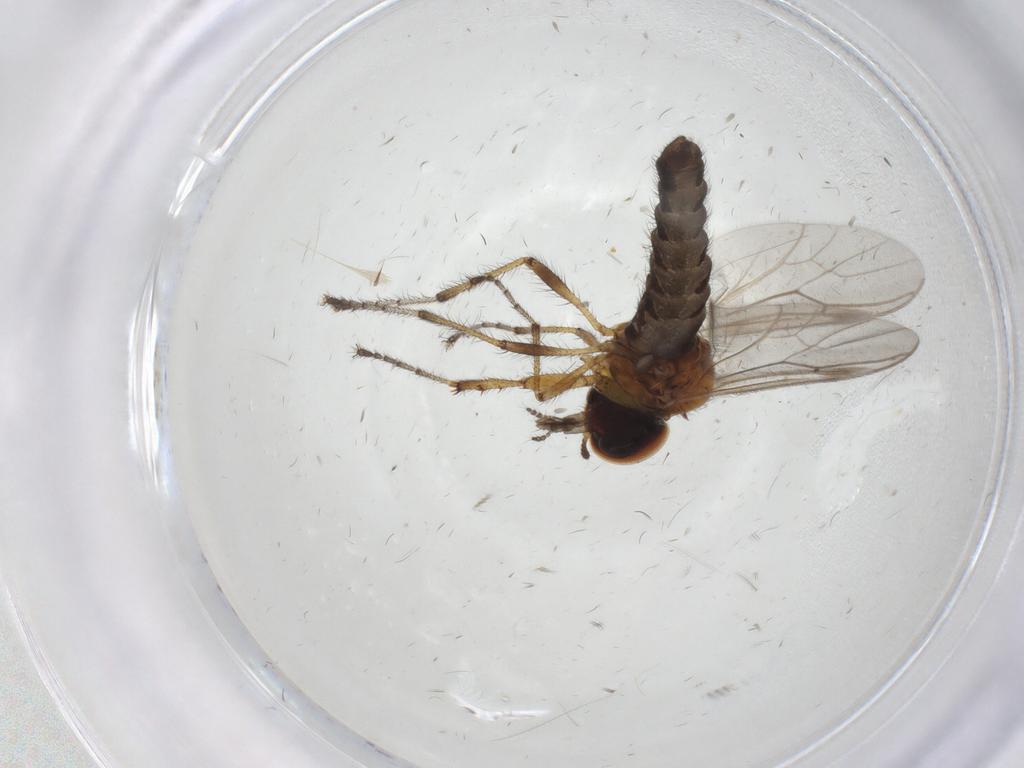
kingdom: Animalia
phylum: Arthropoda
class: Insecta
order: Diptera
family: Bibionidae
